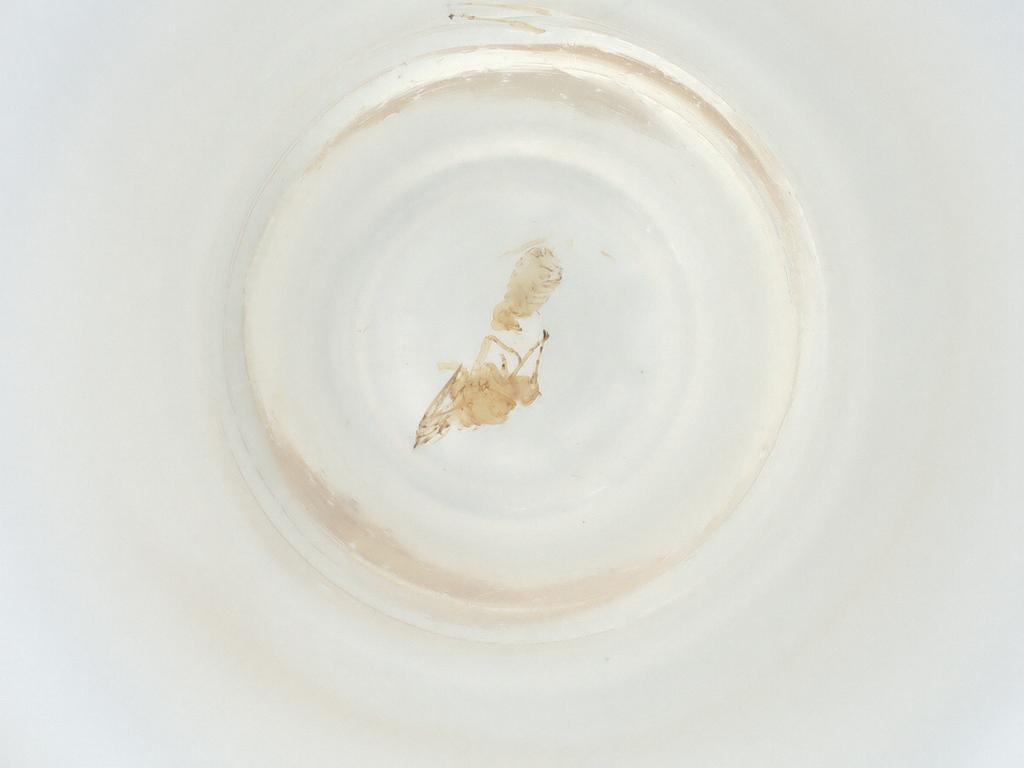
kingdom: Animalia
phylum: Arthropoda
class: Insecta
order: Hemiptera
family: Psylloidea_incertae_sedis
